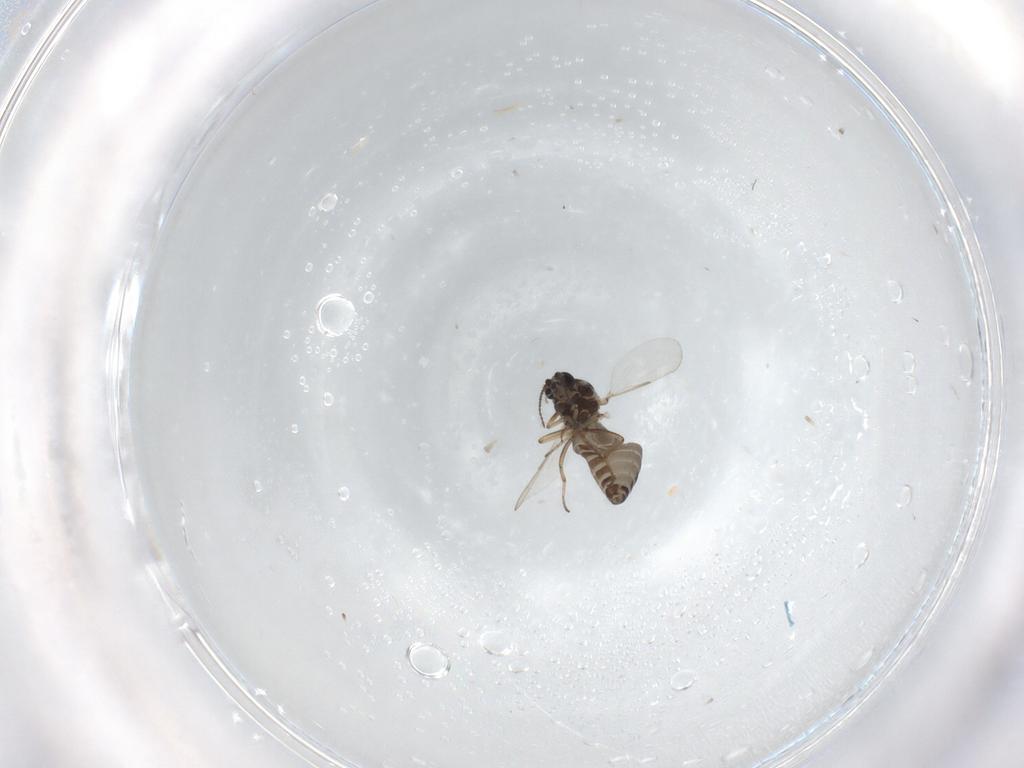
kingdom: Animalia
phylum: Arthropoda
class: Insecta
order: Diptera
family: Ceratopogonidae
